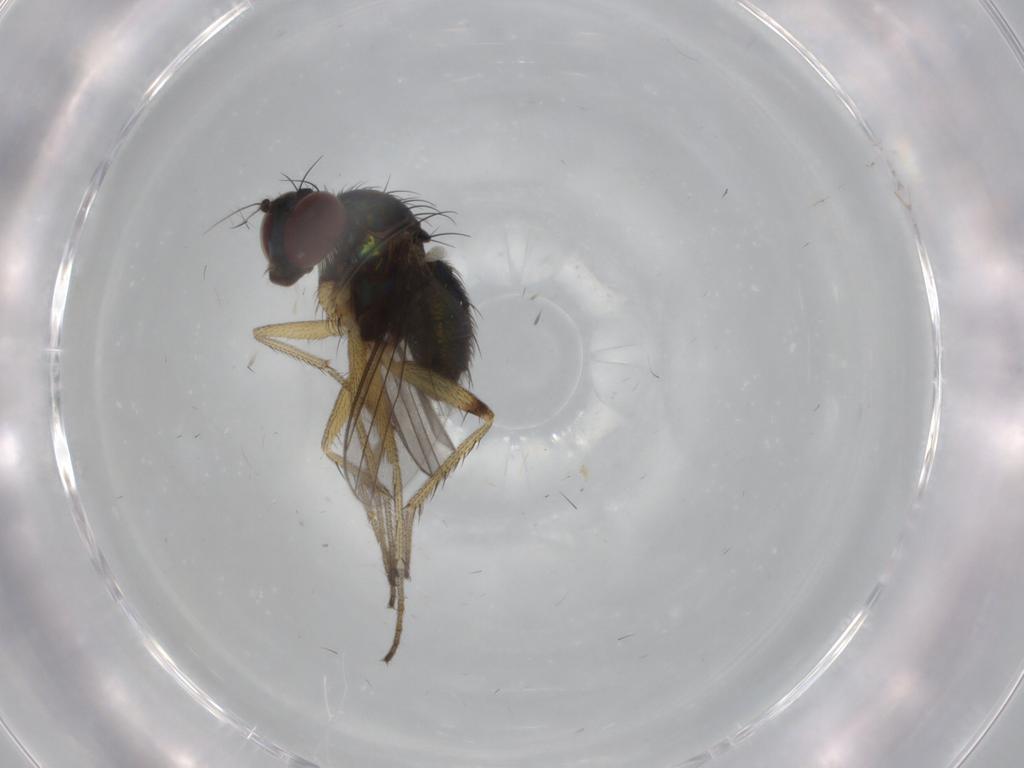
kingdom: Animalia
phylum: Arthropoda
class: Insecta
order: Diptera
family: Dolichopodidae
